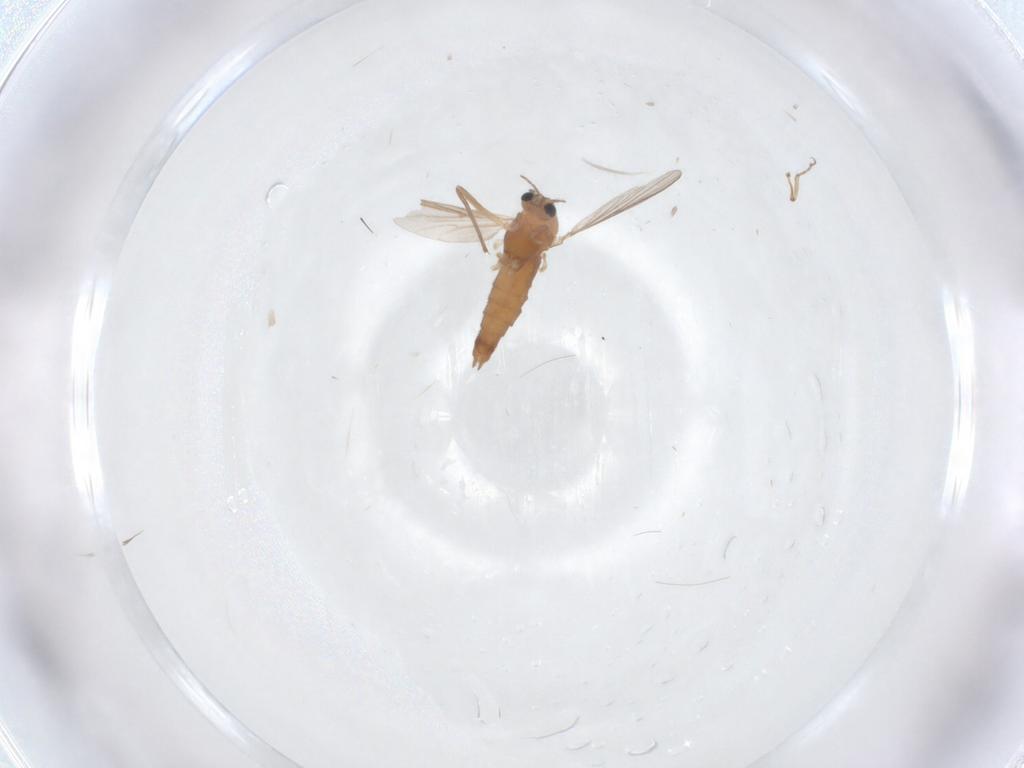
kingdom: Animalia
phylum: Arthropoda
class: Insecta
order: Diptera
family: Chironomidae
